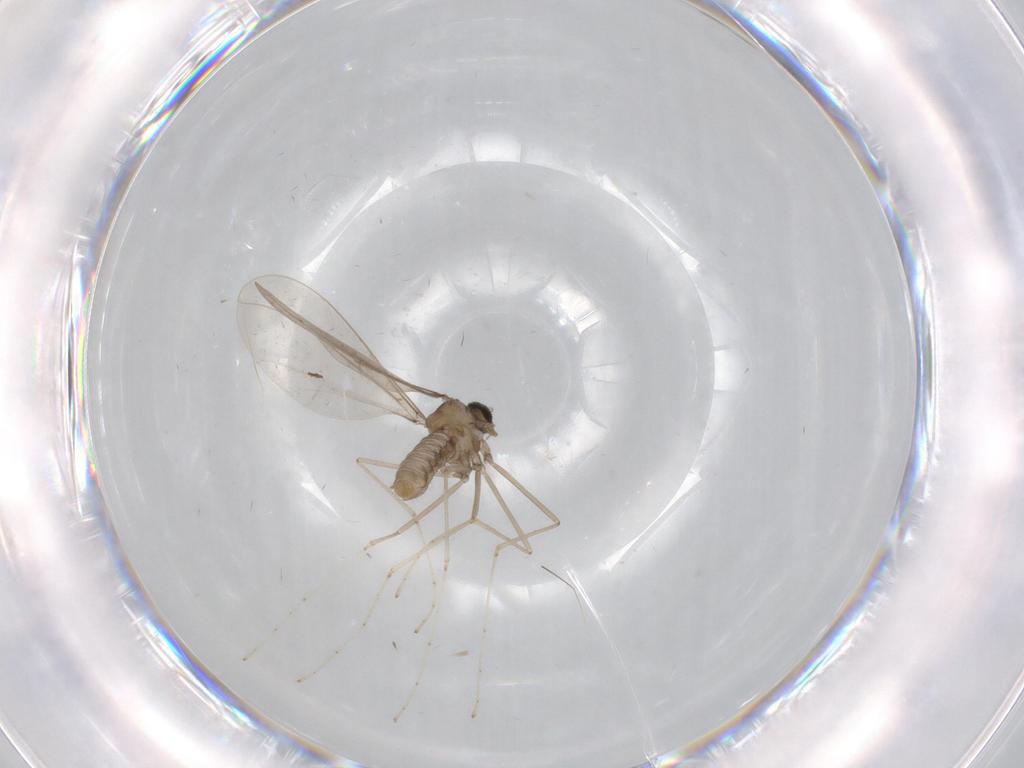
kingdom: Animalia
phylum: Arthropoda
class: Insecta
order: Diptera
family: Cecidomyiidae
